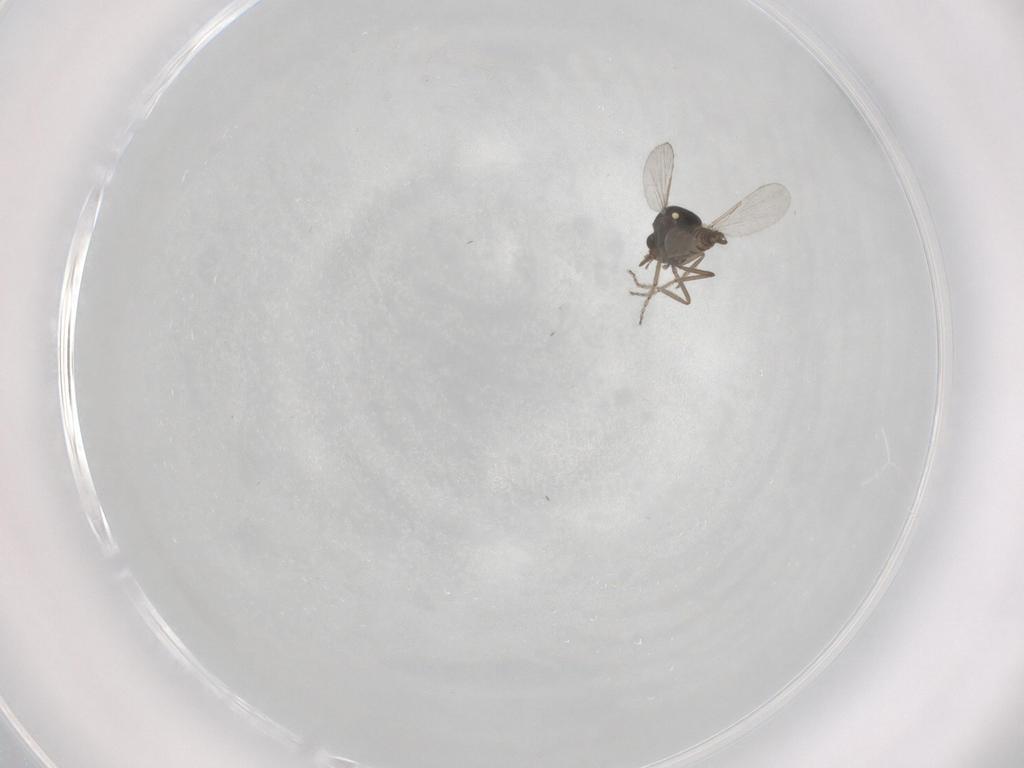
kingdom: Animalia
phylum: Arthropoda
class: Insecta
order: Diptera
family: Ceratopogonidae
